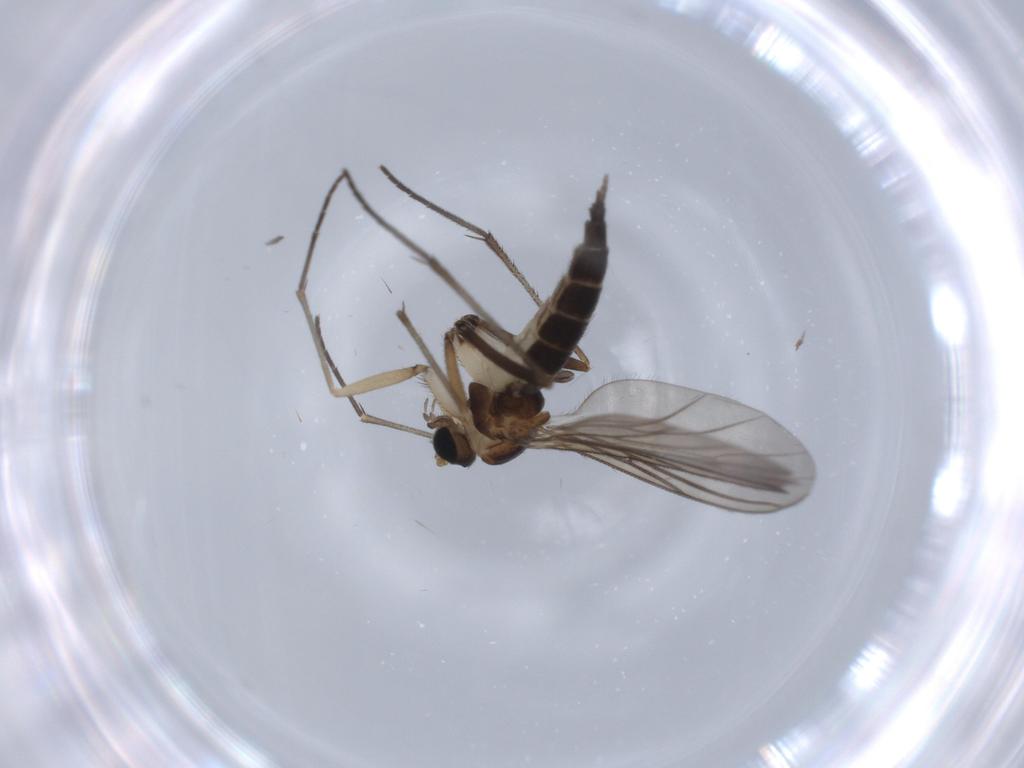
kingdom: Animalia
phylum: Arthropoda
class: Insecta
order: Diptera
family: Sciaridae
